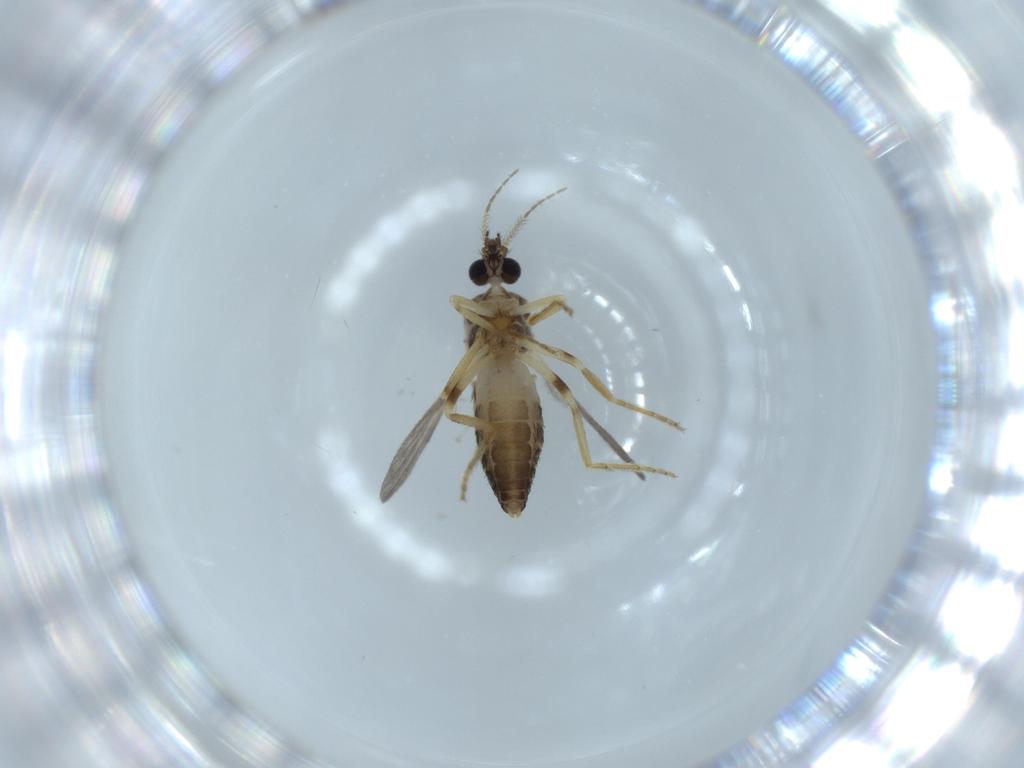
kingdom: Animalia
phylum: Arthropoda
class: Insecta
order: Diptera
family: Ceratopogonidae
